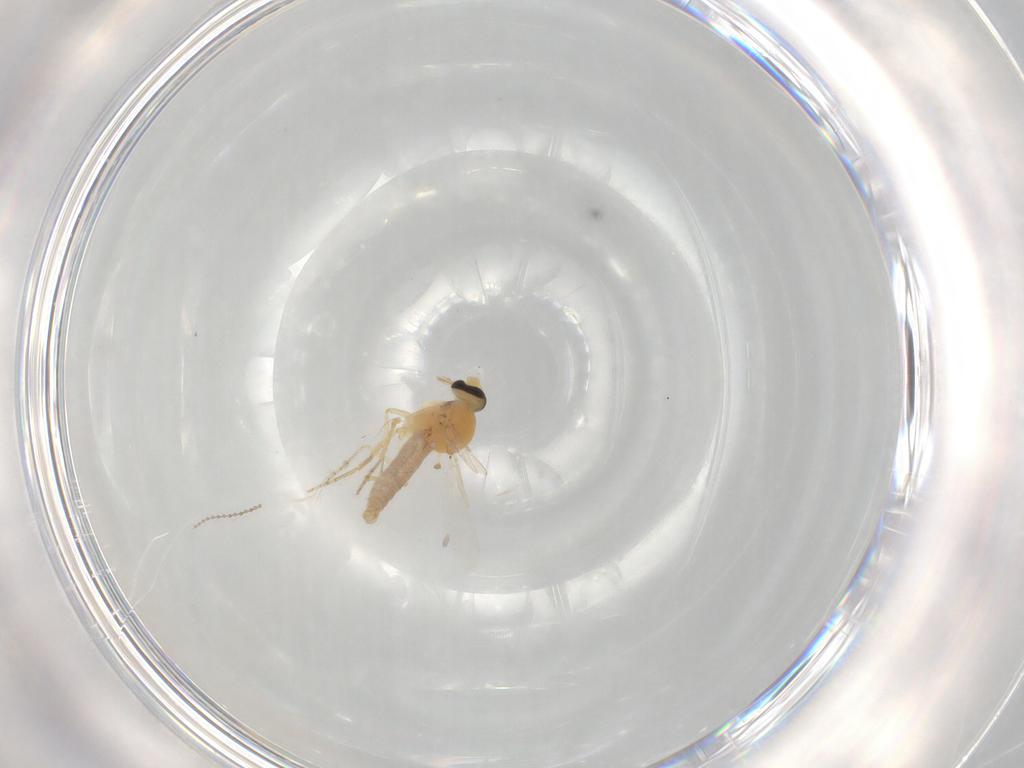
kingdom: Animalia
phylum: Arthropoda
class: Insecta
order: Diptera
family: Ceratopogonidae
